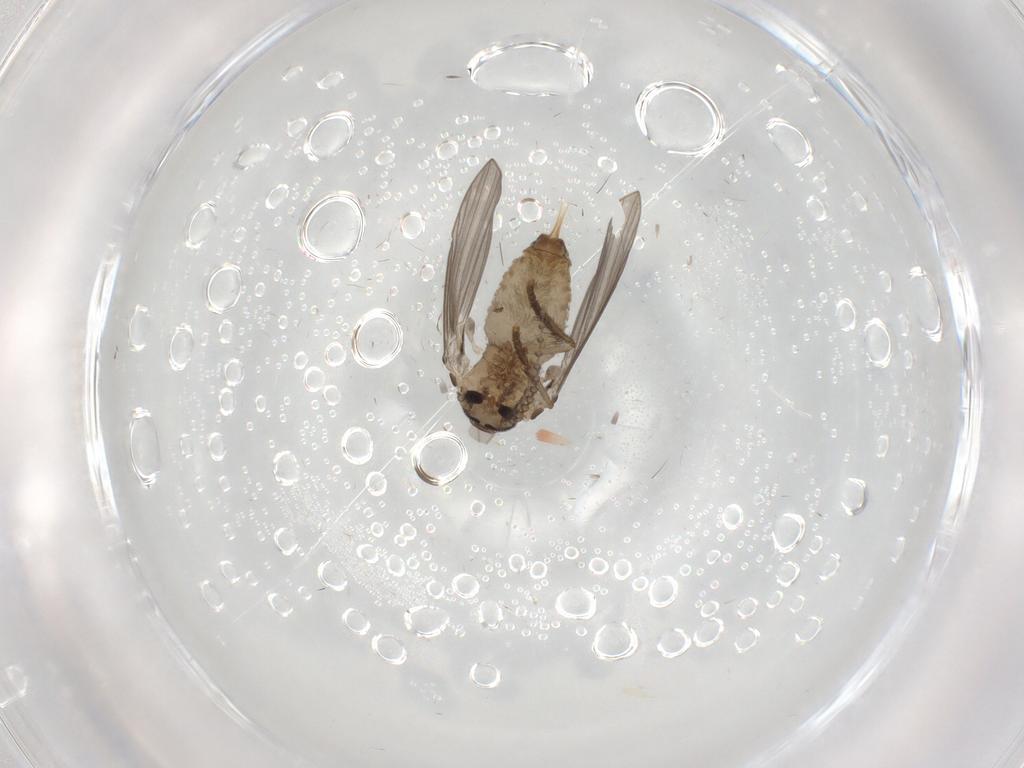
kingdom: Animalia
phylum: Arthropoda
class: Insecta
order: Diptera
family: Psychodidae
